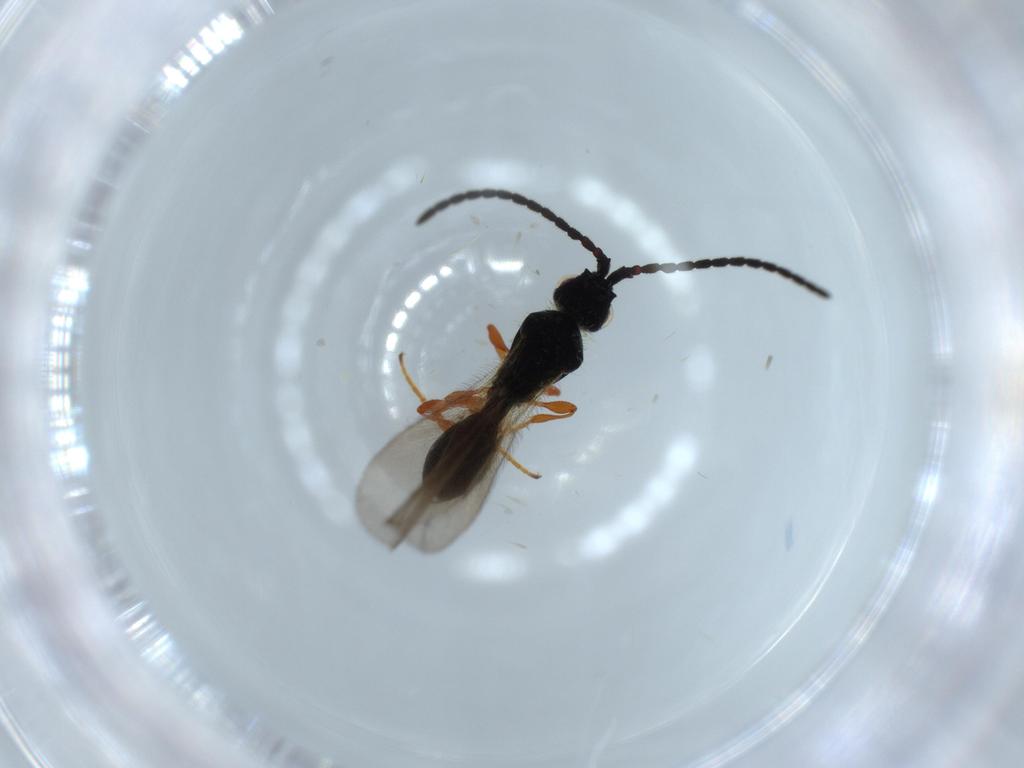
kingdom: Animalia
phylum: Arthropoda
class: Insecta
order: Hymenoptera
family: Diapriidae
